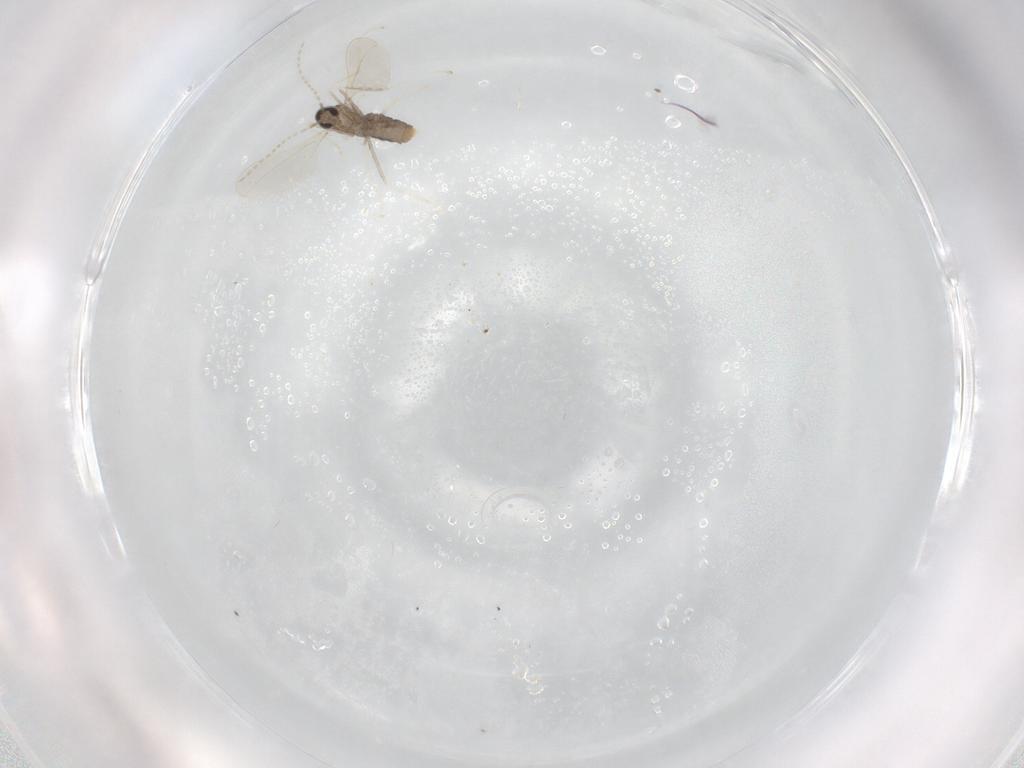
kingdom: Animalia
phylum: Arthropoda
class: Insecta
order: Diptera
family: Cecidomyiidae
